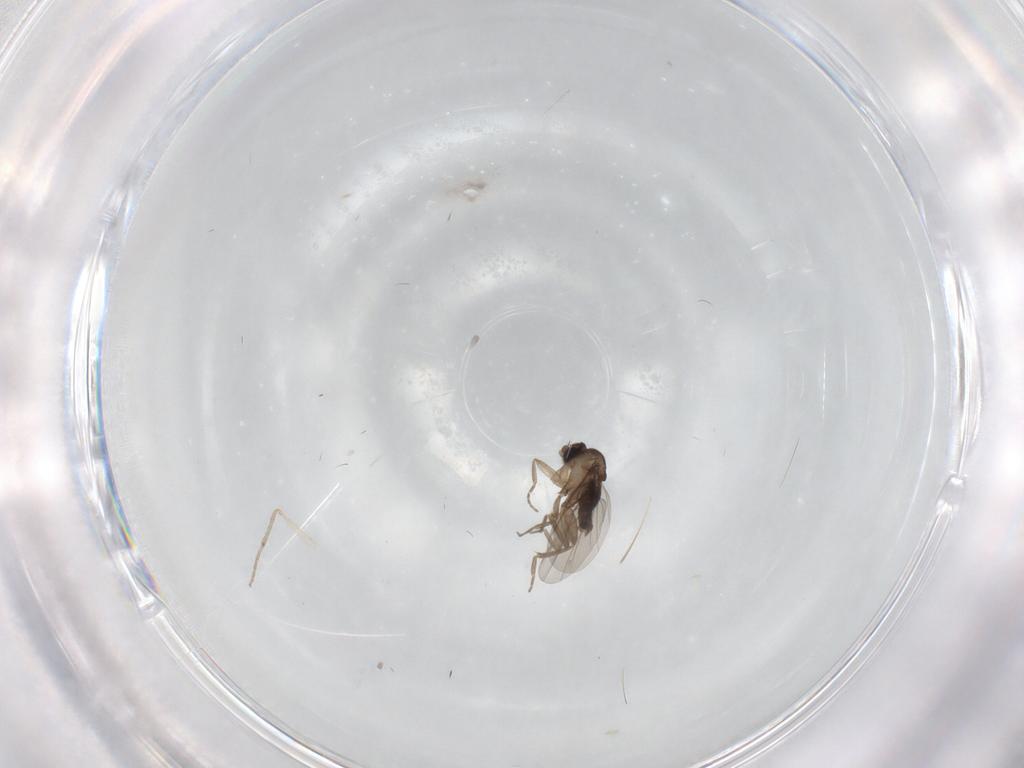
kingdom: Animalia
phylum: Arthropoda
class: Insecta
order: Diptera
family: Phoridae
